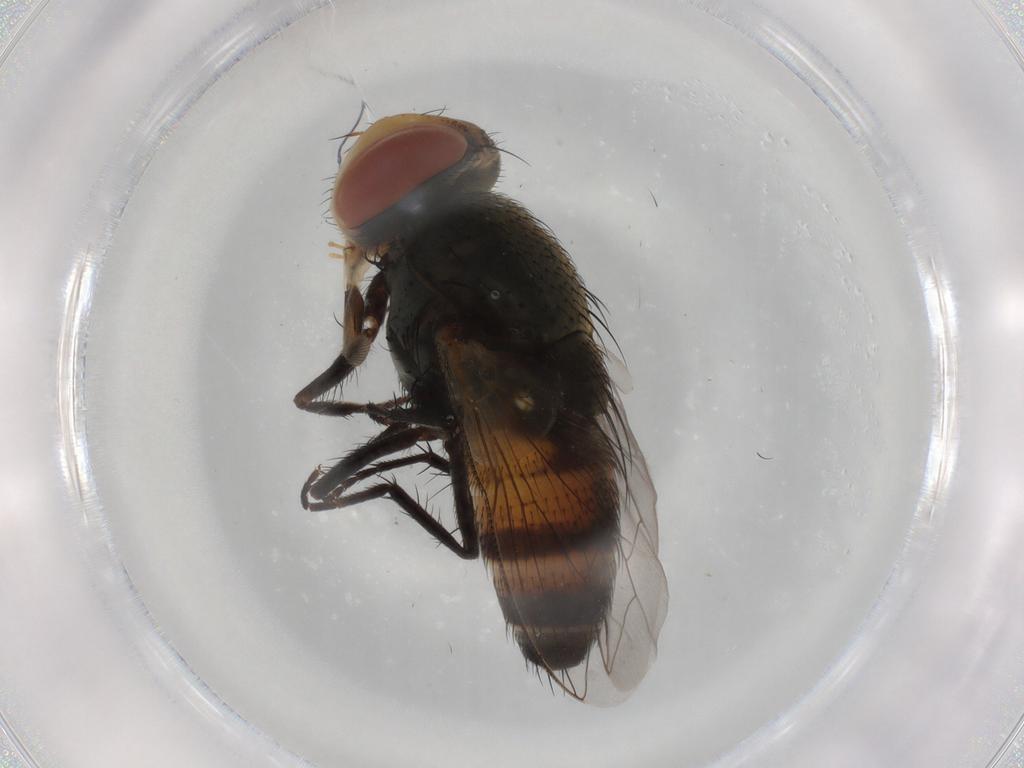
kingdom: Animalia
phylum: Arthropoda
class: Insecta
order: Diptera
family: Sarcophagidae
